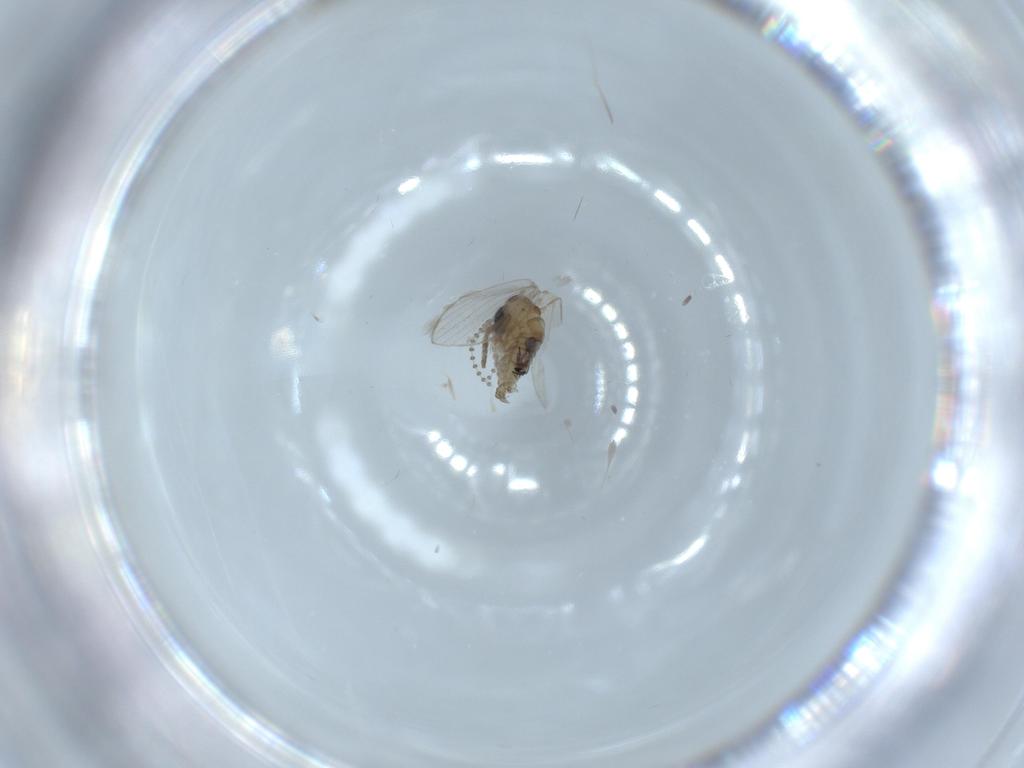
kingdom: Animalia
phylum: Arthropoda
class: Insecta
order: Diptera
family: Psychodidae
